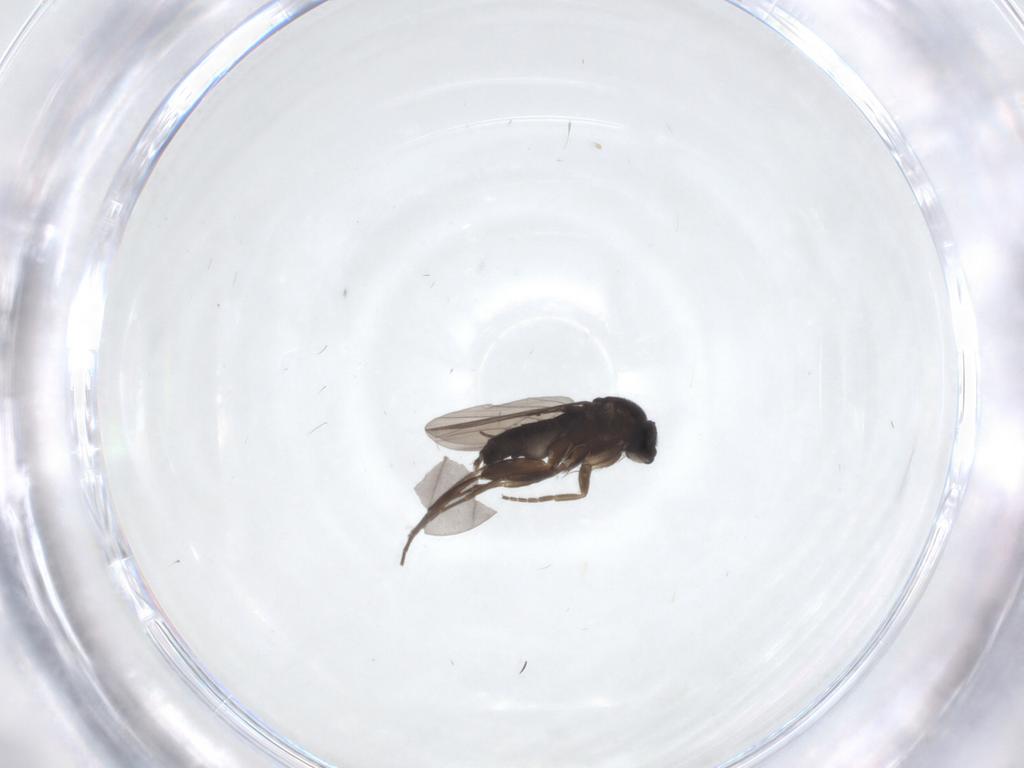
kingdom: Animalia
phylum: Arthropoda
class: Insecta
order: Diptera
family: Phoridae
